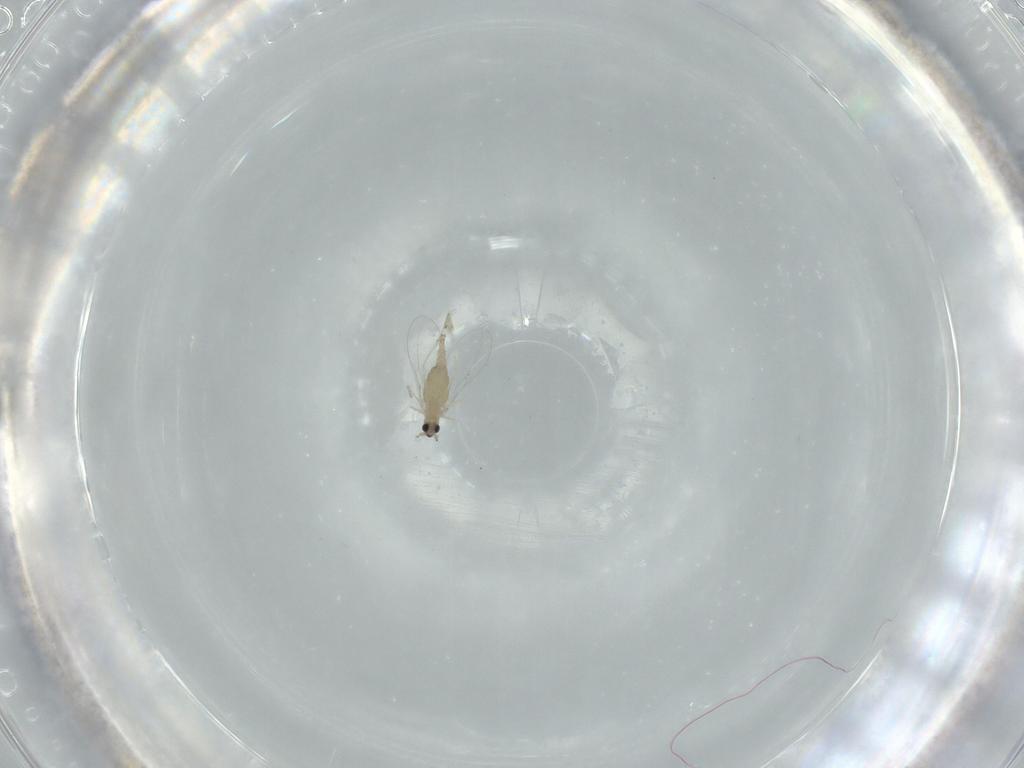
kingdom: Animalia
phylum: Arthropoda
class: Insecta
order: Diptera
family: Cecidomyiidae
